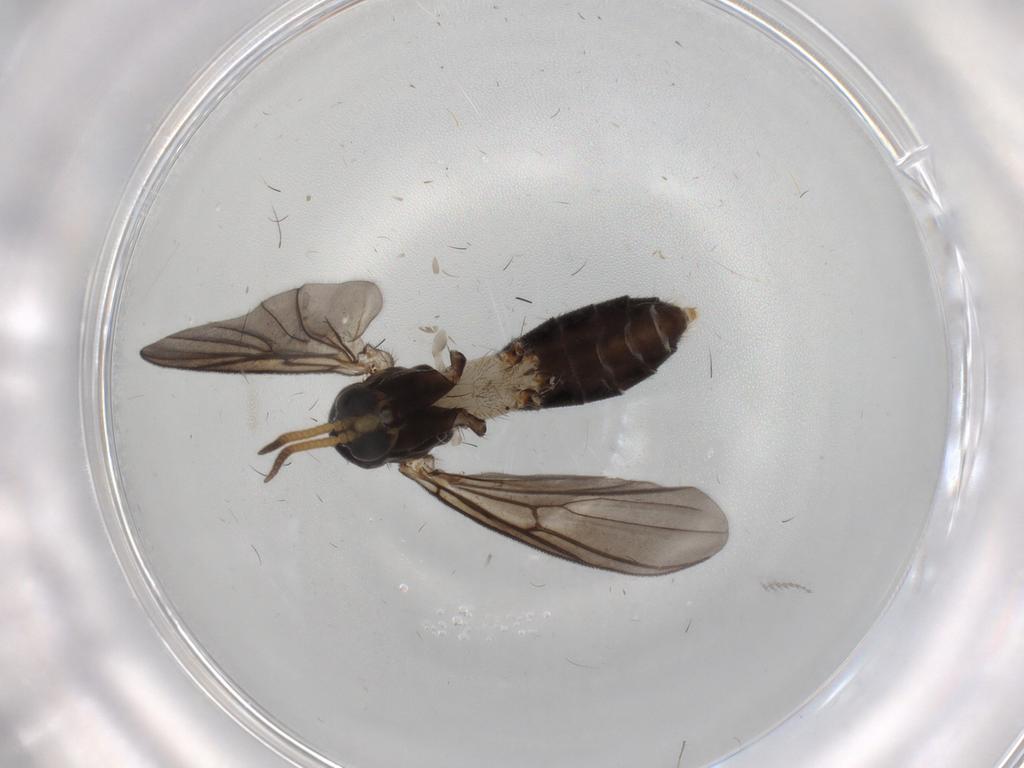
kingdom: Animalia
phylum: Arthropoda
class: Insecta
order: Diptera
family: Mycetophilidae
